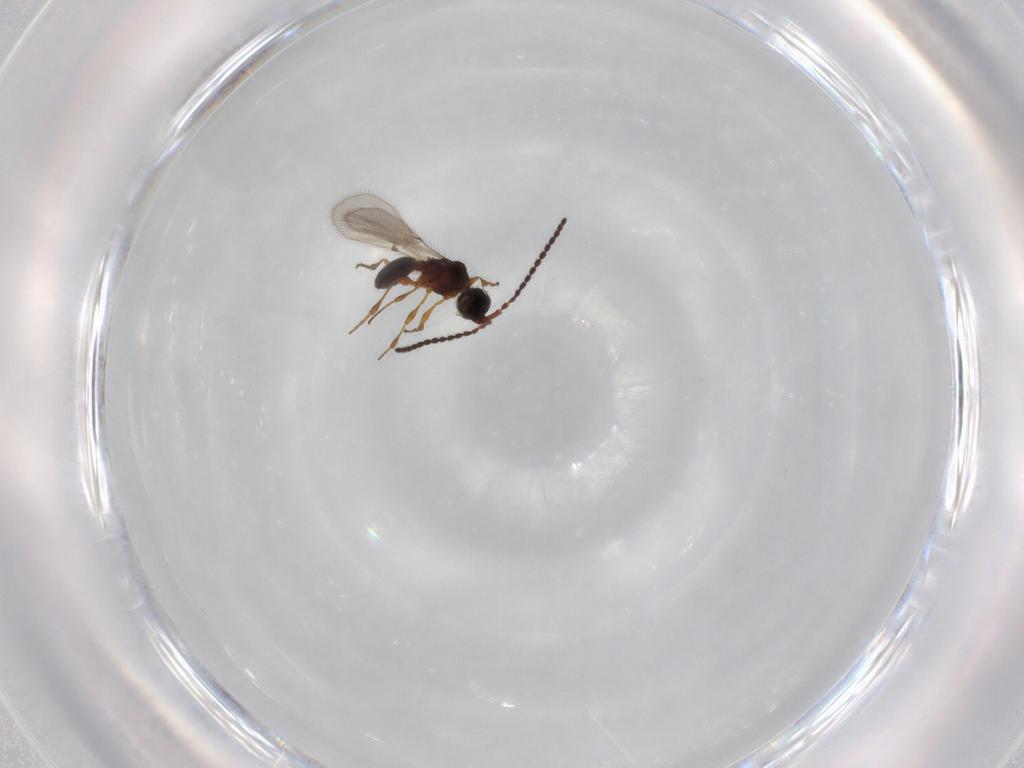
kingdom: Animalia
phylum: Arthropoda
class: Insecta
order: Hymenoptera
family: Diapriidae
